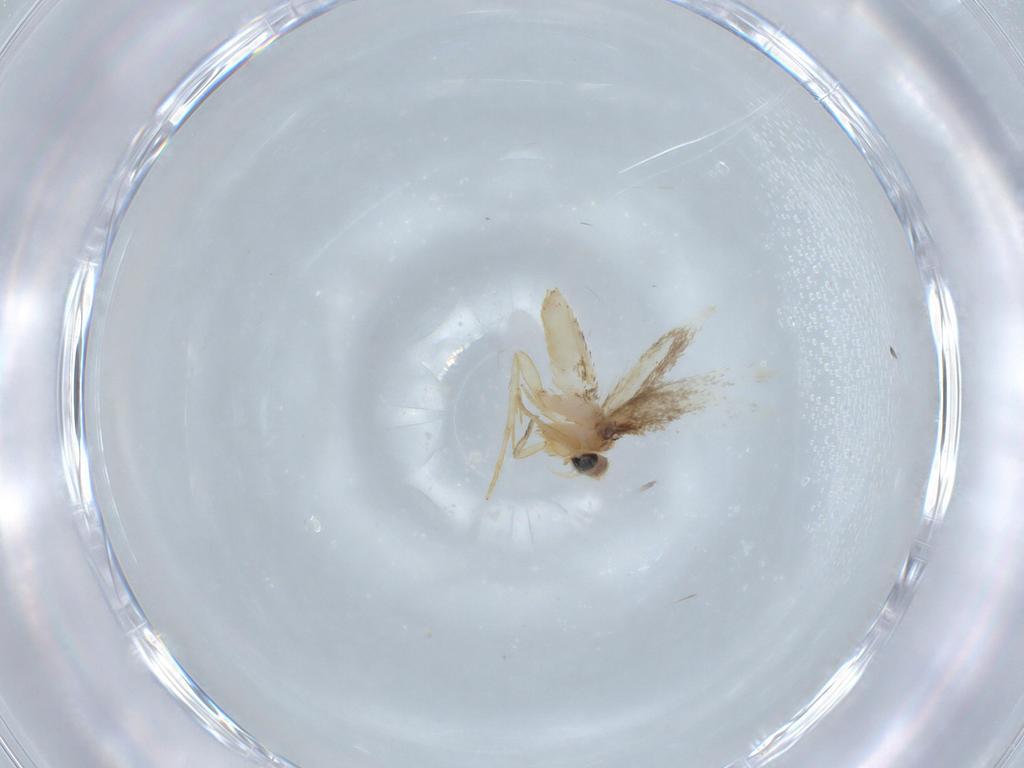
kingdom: Animalia
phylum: Arthropoda
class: Insecta
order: Lepidoptera
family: Nepticulidae
